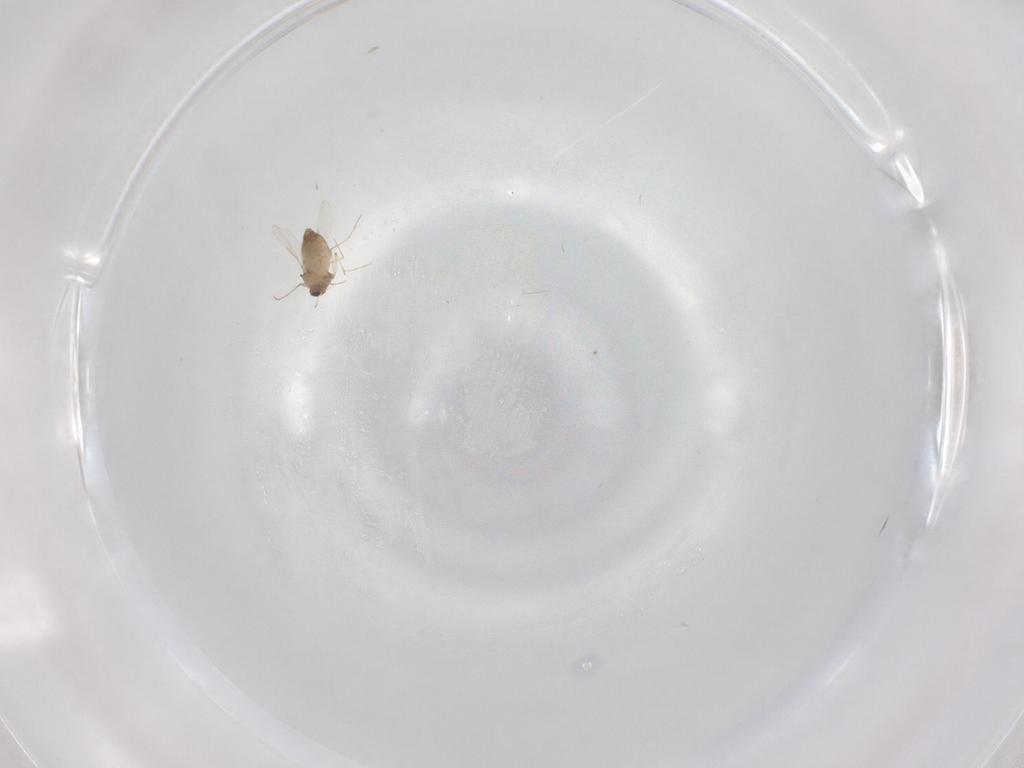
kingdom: Animalia
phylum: Arthropoda
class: Insecta
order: Diptera
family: Chironomidae
